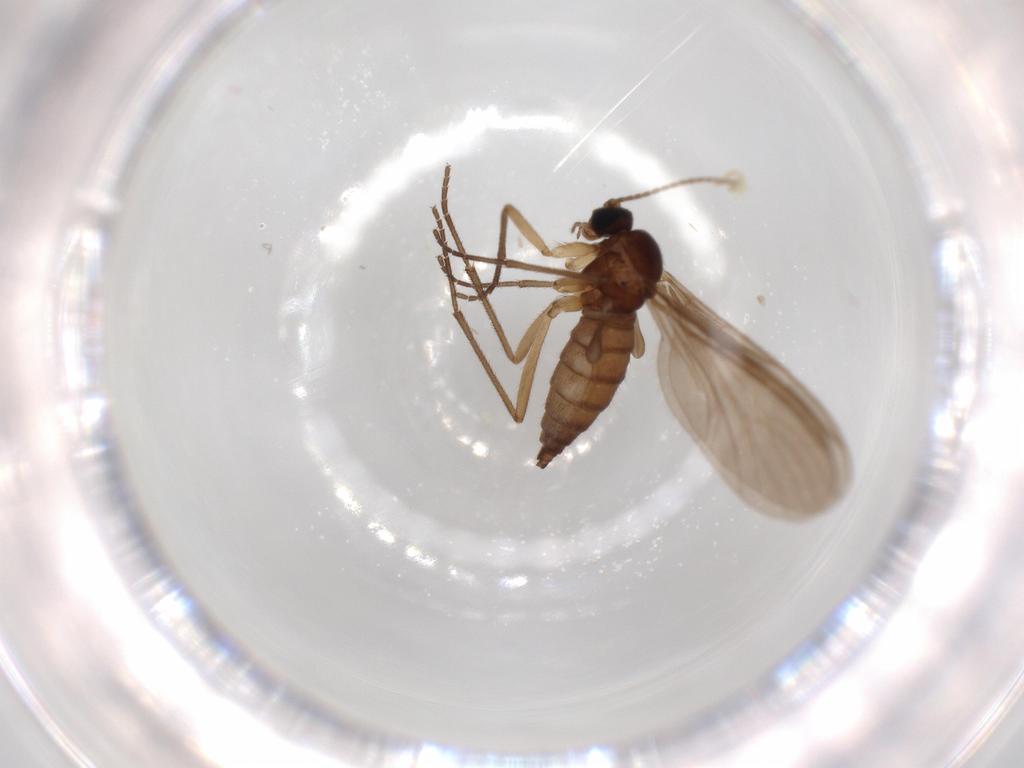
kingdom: Animalia
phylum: Arthropoda
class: Insecta
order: Diptera
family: Sciaridae
